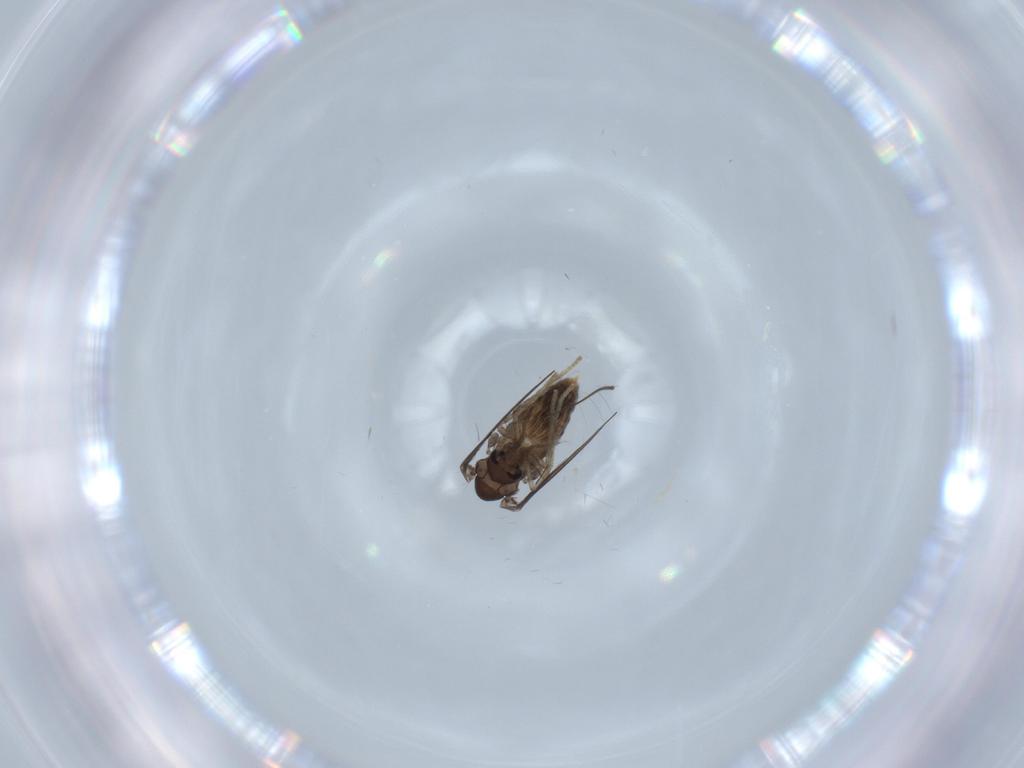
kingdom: Animalia
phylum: Arthropoda
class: Insecta
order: Diptera
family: Psychodidae
